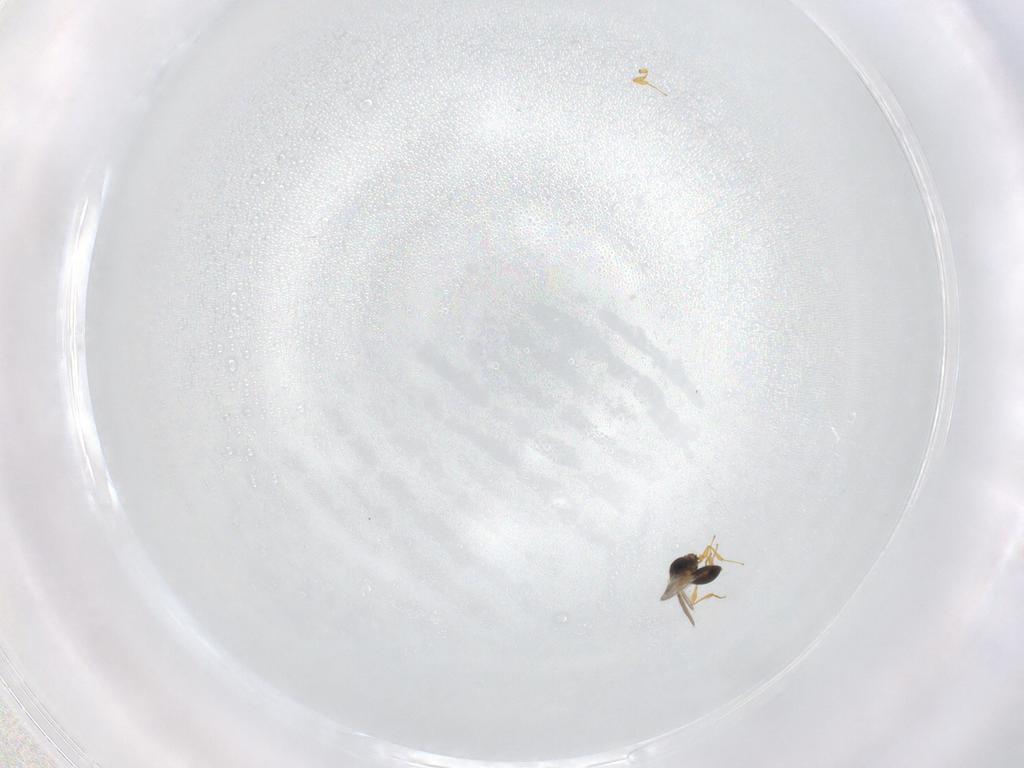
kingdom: Animalia
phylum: Arthropoda
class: Insecta
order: Hymenoptera
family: Platygastridae
